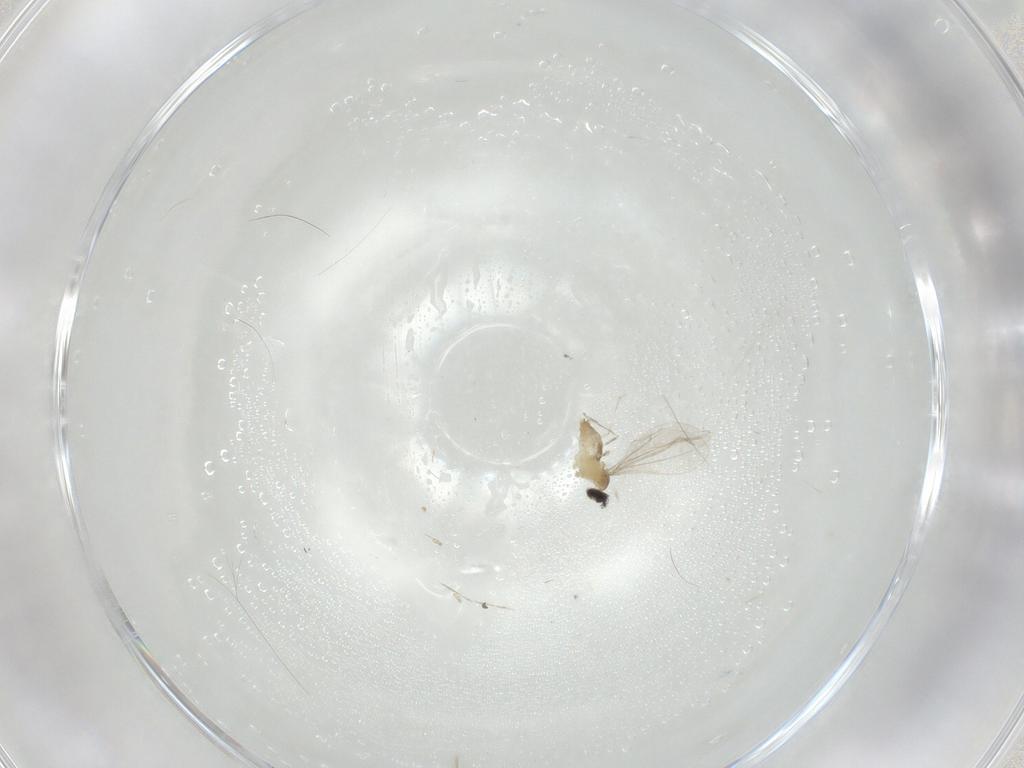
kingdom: Animalia
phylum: Arthropoda
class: Insecta
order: Diptera
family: Cecidomyiidae
